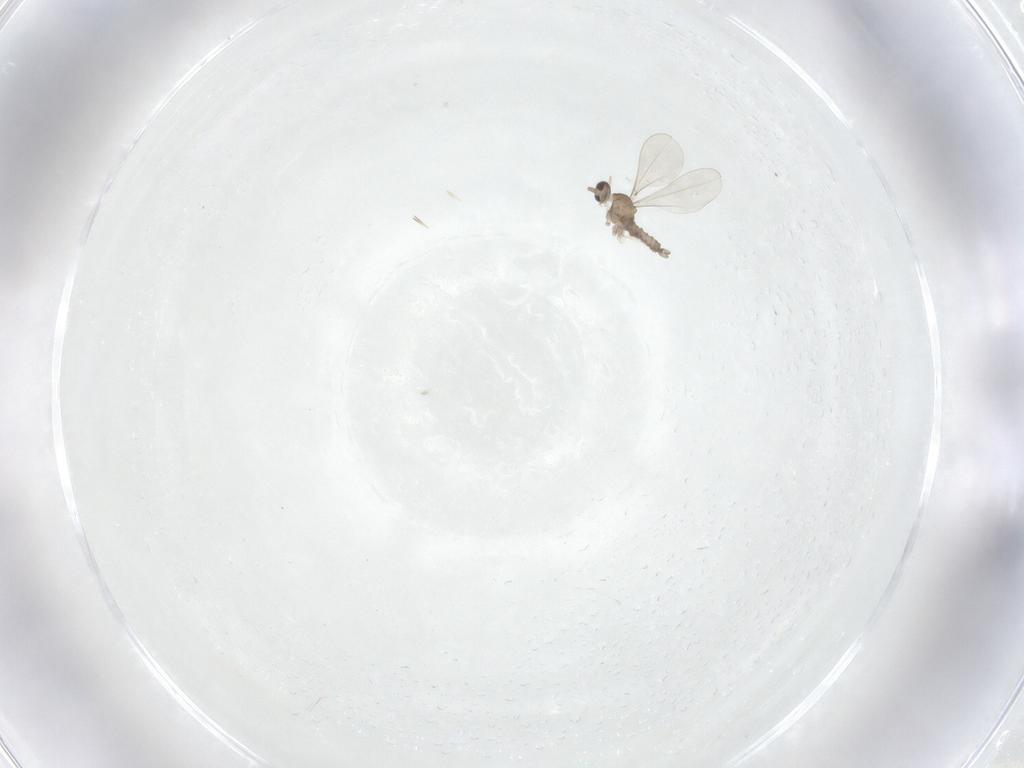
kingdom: Animalia
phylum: Arthropoda
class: Insecta
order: Diptera
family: Cecidomyiidae
